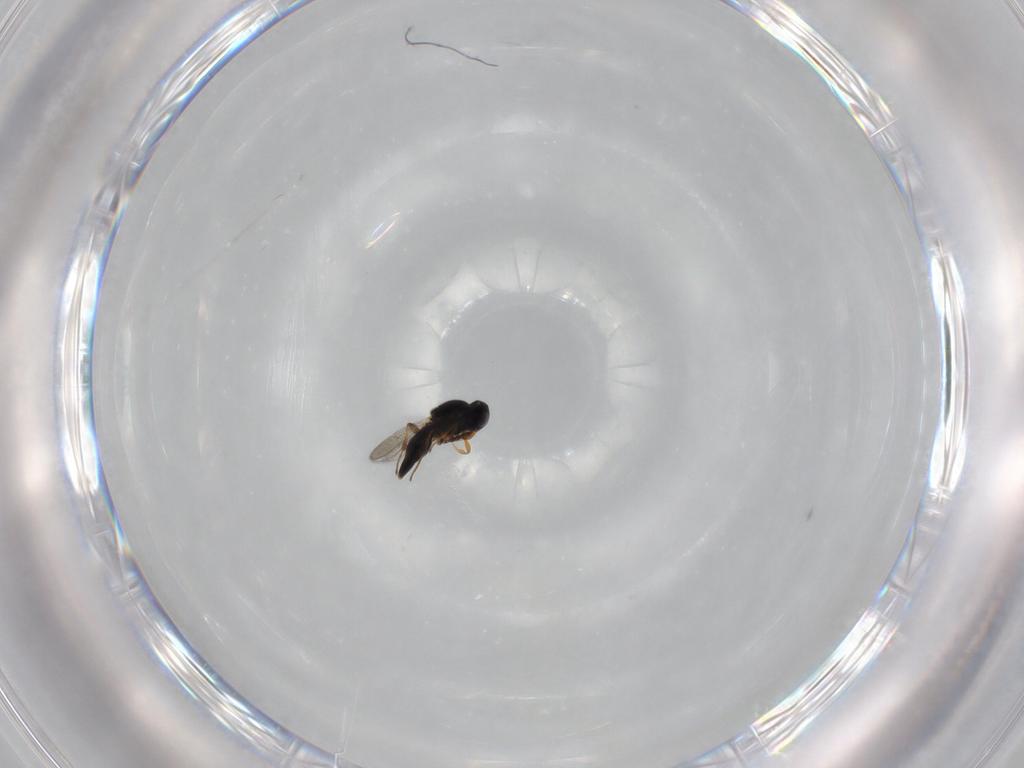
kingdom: Animalia
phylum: Arthropoda
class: Insecta
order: Hymenoptera
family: Platygastridae
